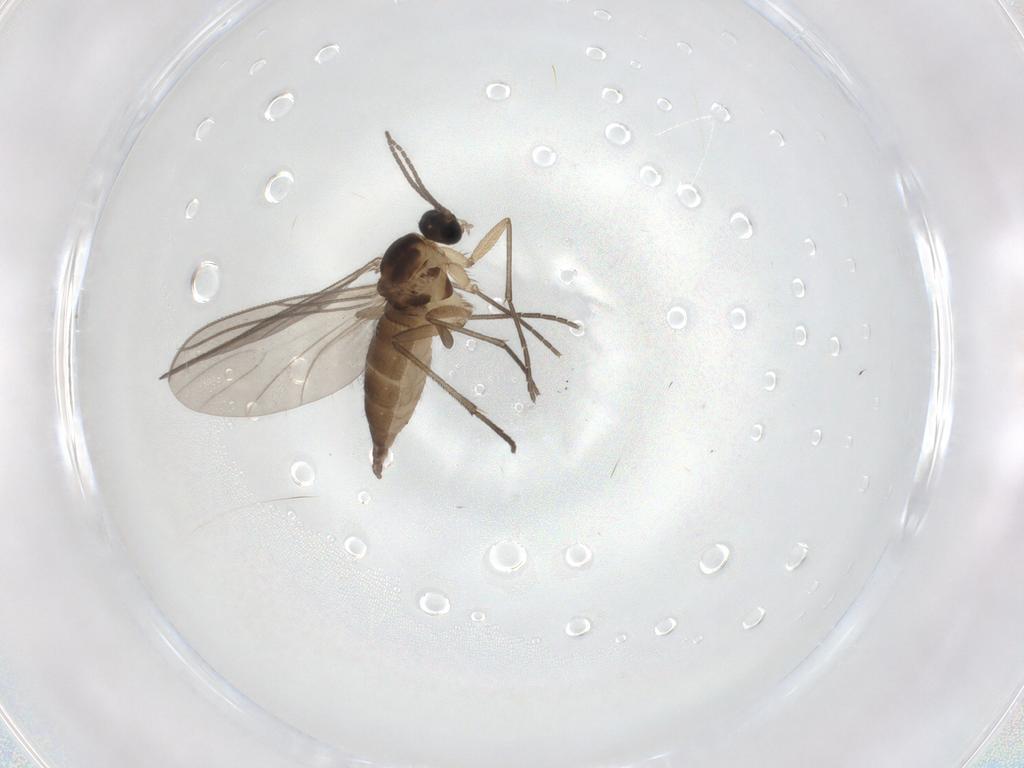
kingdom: Animalia
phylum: Arthropoda
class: Insecta
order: Diptera
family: Sciaridae
